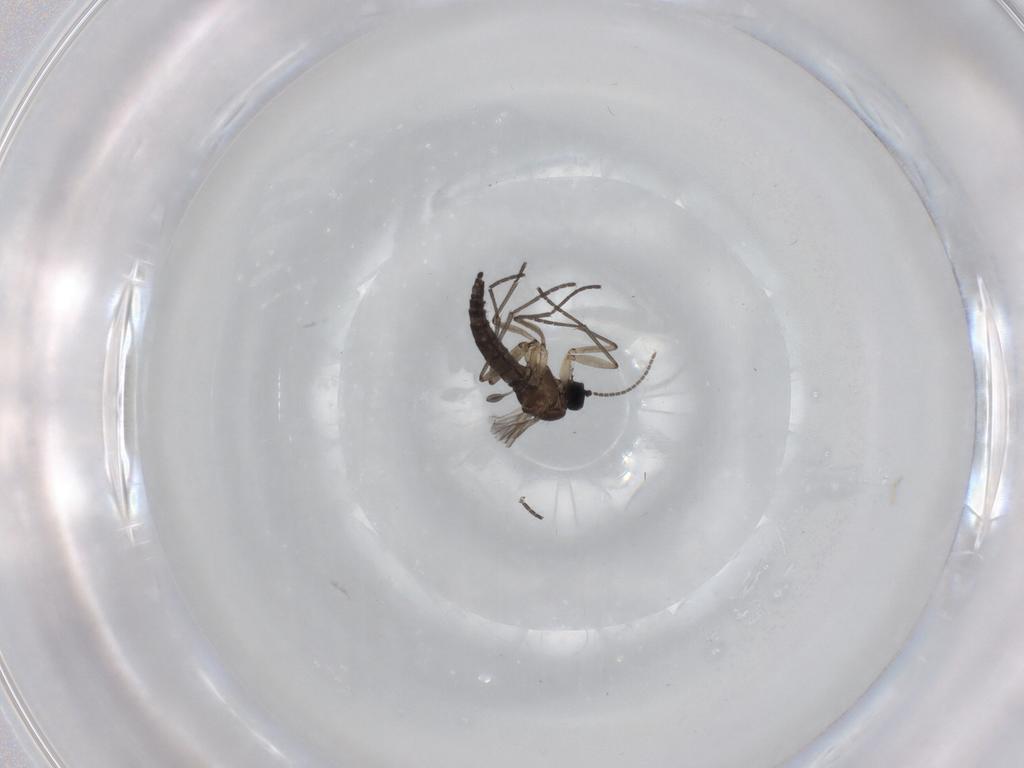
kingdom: Animalia
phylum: Arthropoda
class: Insecta
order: Diptera
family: Sciaridae
